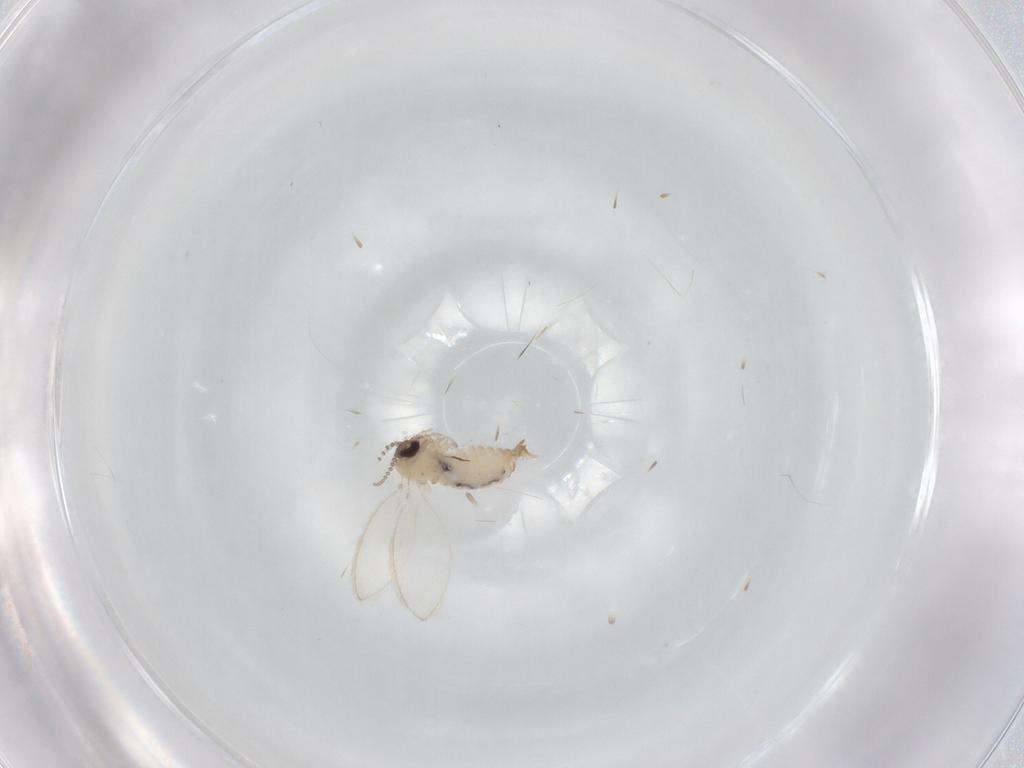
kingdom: Animalia
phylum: Arthropoda
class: Insecta
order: Diptera
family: Psychodidae
